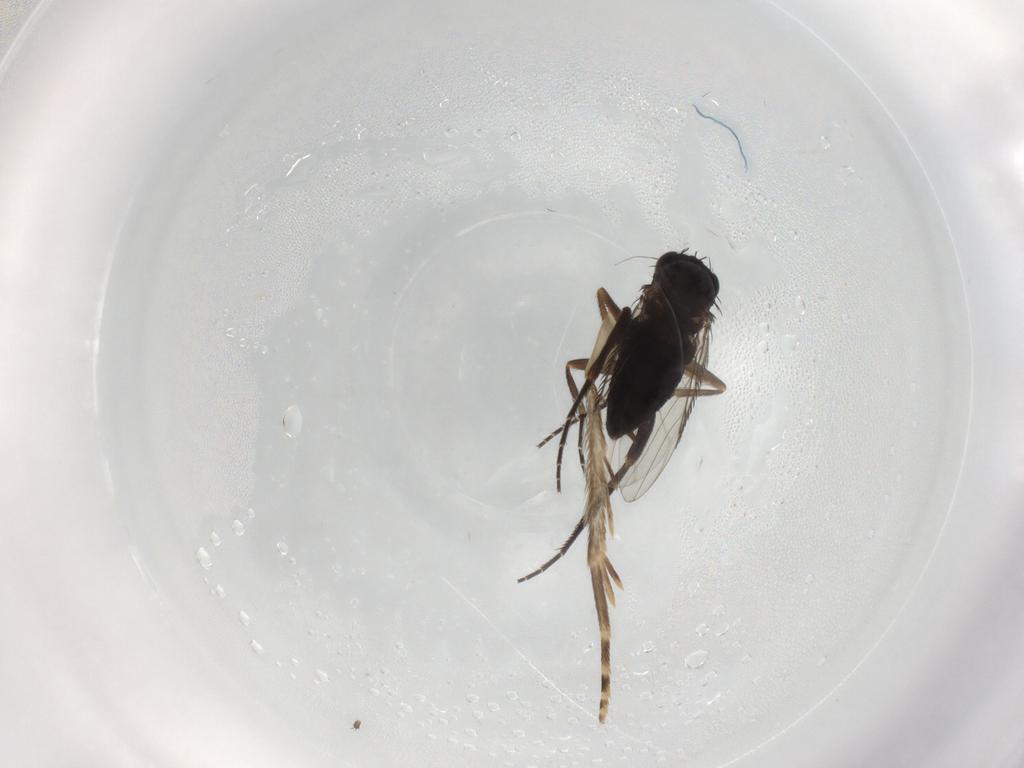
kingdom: Animalia
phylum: Arthropoda
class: Insecta
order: Diptera
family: Phoridae
